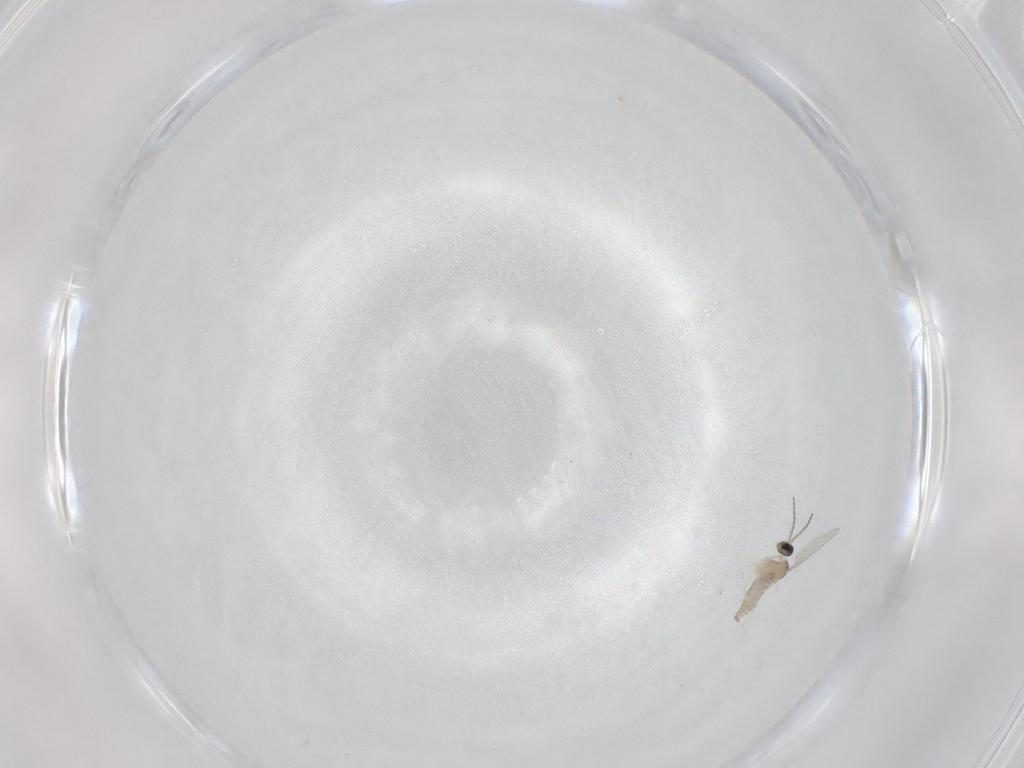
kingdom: Animalia
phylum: Arthropoda
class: Insecta
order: Diptera
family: Cecidomyiidae
